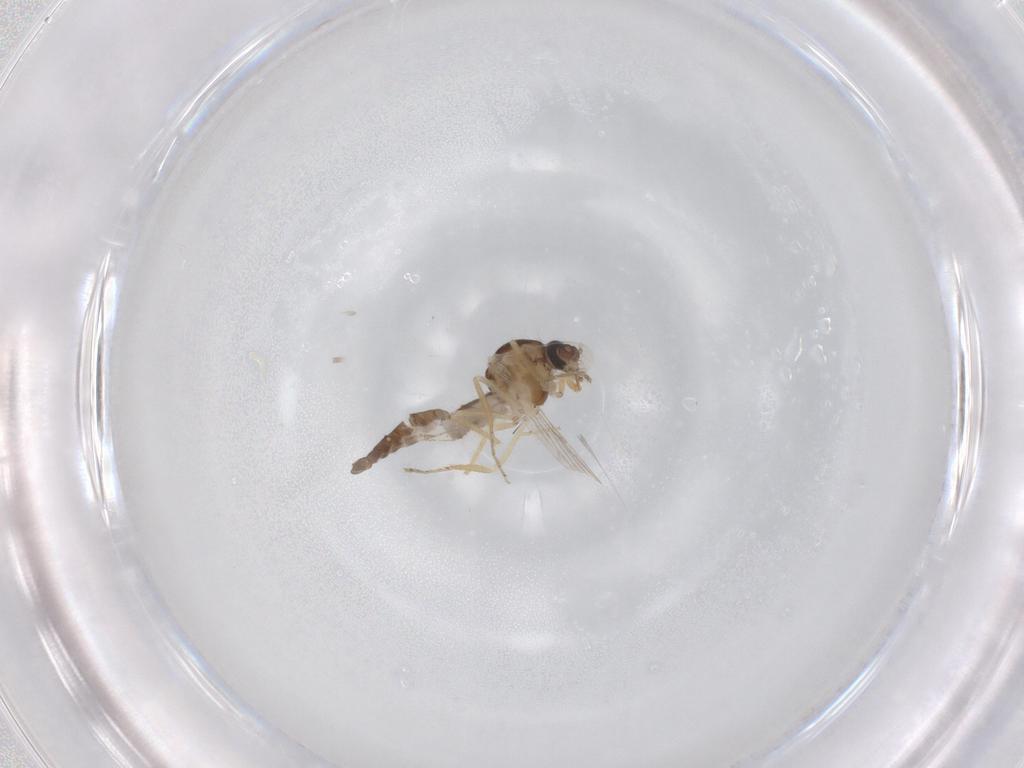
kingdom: Animalia
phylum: Arthropoda
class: Insecta
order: Diptera
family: Ceratopogonidae
